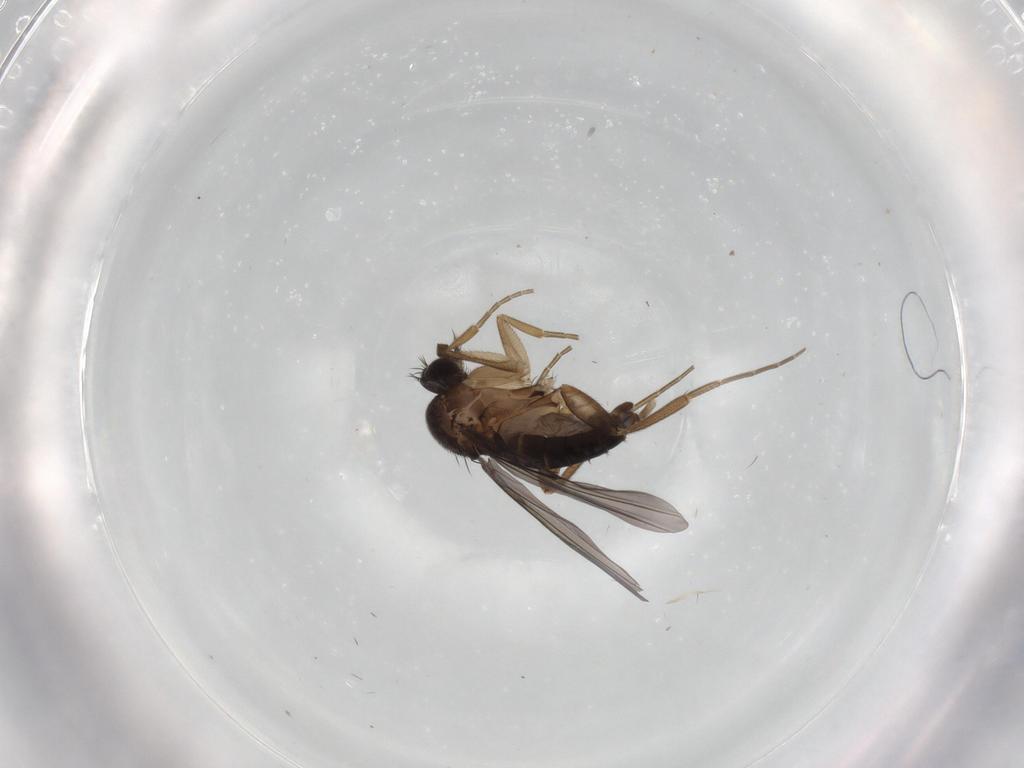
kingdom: Animalia
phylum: Arthropoda
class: Insecta
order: Diptera
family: Phoridae
